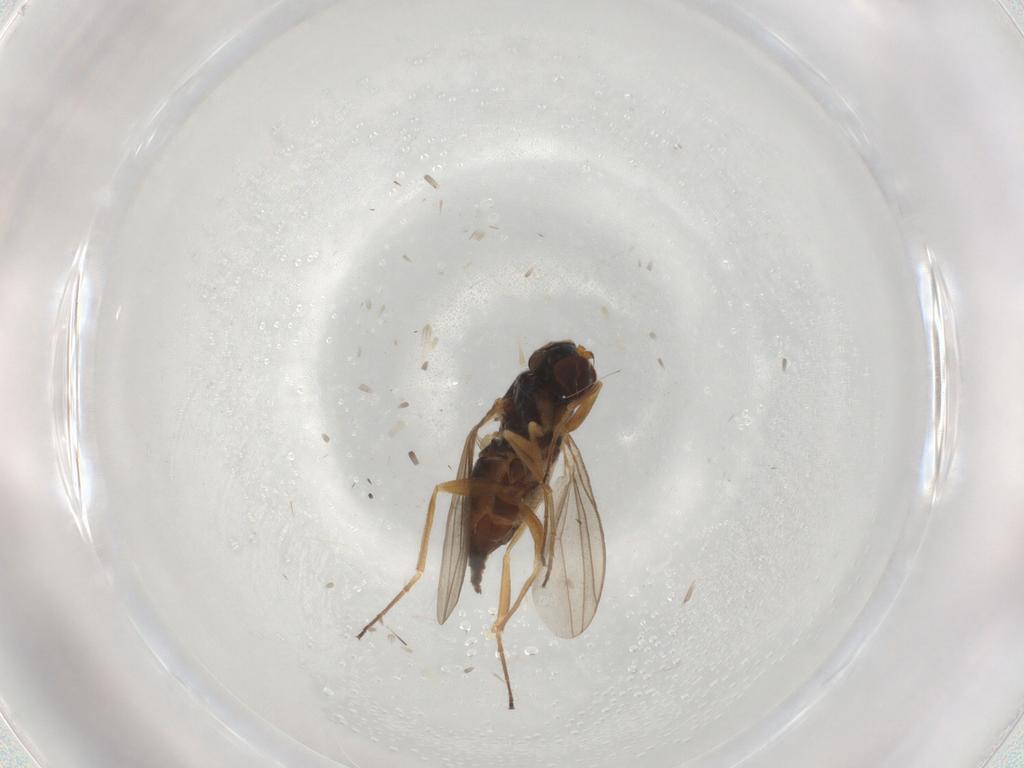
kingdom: Animalia
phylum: Arthropoda
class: Insecta
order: Diptera
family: Dolichopodidae
